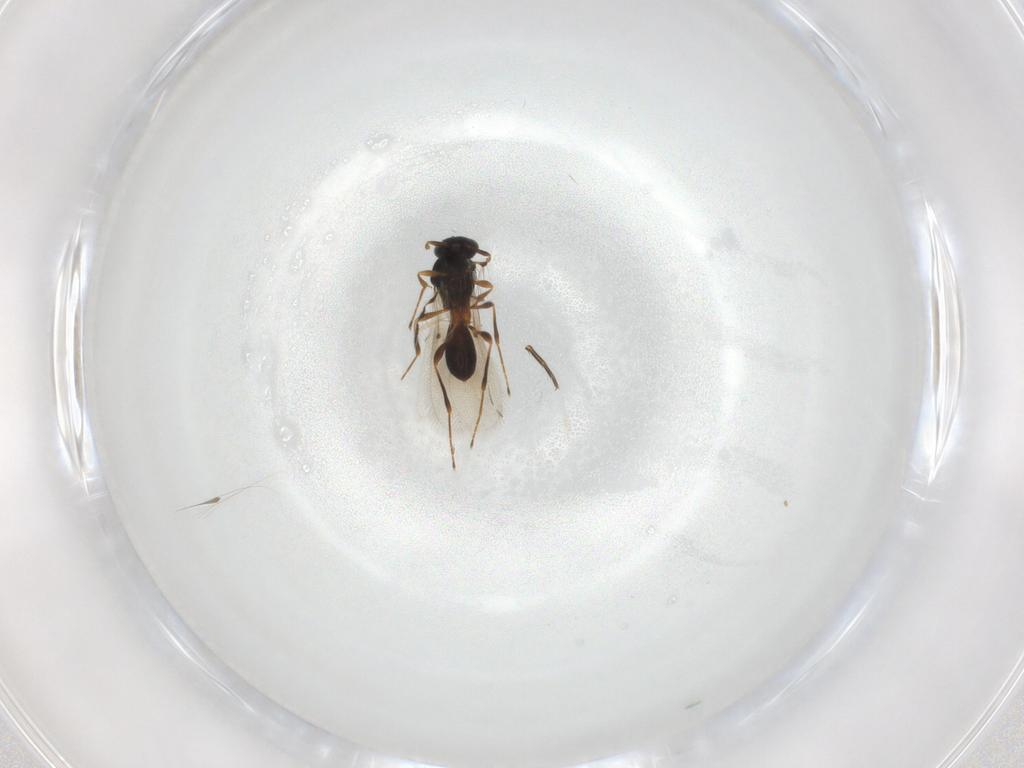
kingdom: Animalia
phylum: Arthropoda
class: Insecta
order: Hymenoptera
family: Platygastridae
